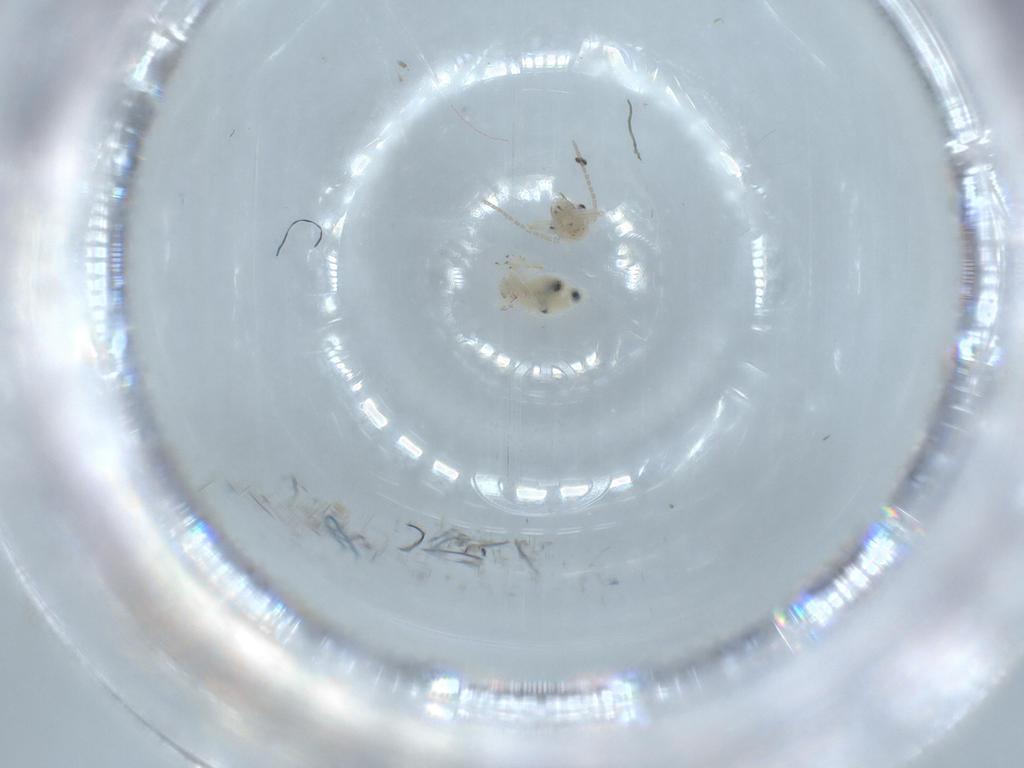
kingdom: Animalia
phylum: Arthropoda
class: Insecta
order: Psocodea
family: Amphipsocidae
